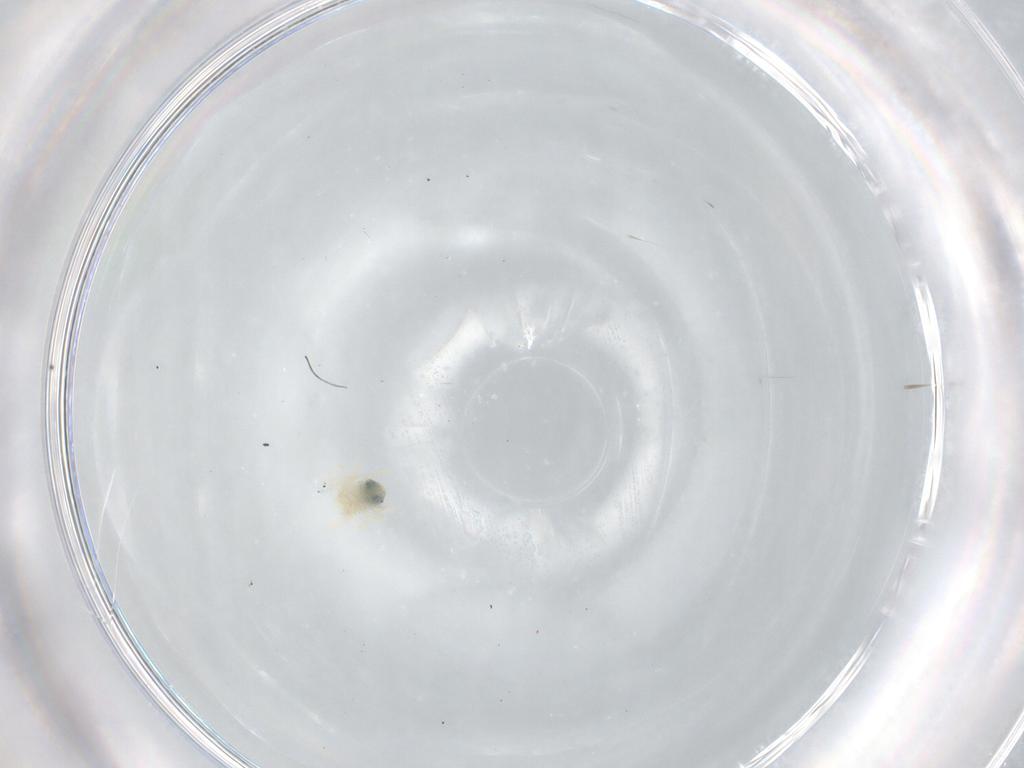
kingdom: Animalia
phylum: Arthropoda
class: Arachnida
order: Trombidiformes
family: Anystidae
